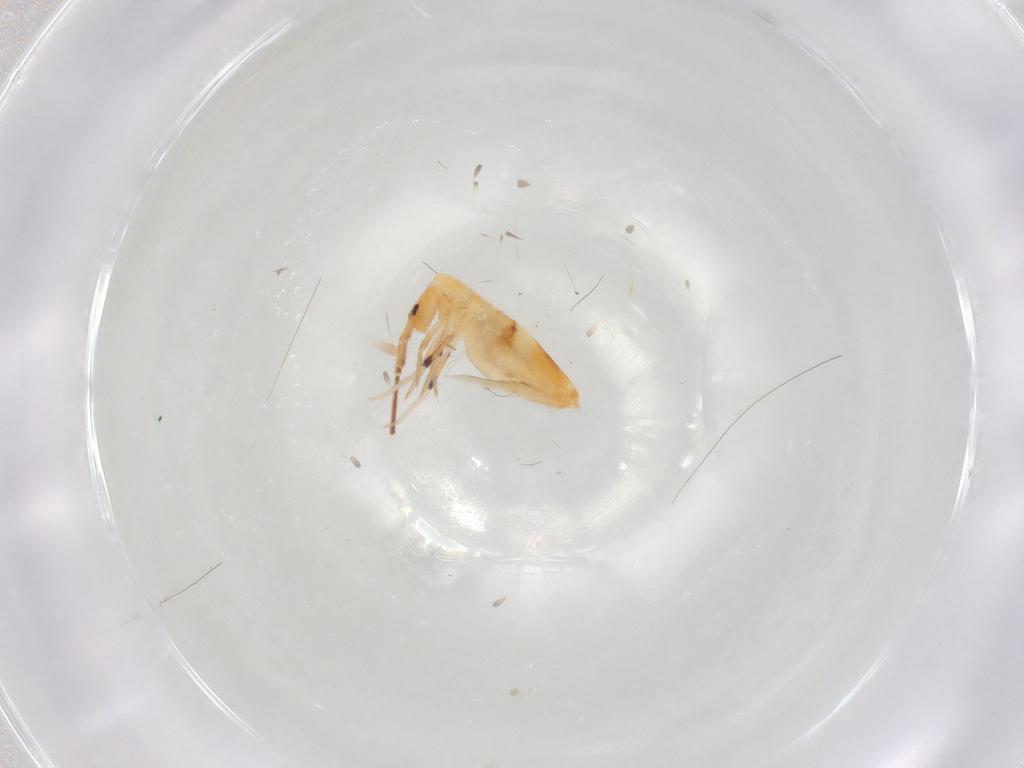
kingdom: Animalia
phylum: Arthropoda
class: Collembola
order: Entomobryomorpha
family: Entomobryidae
